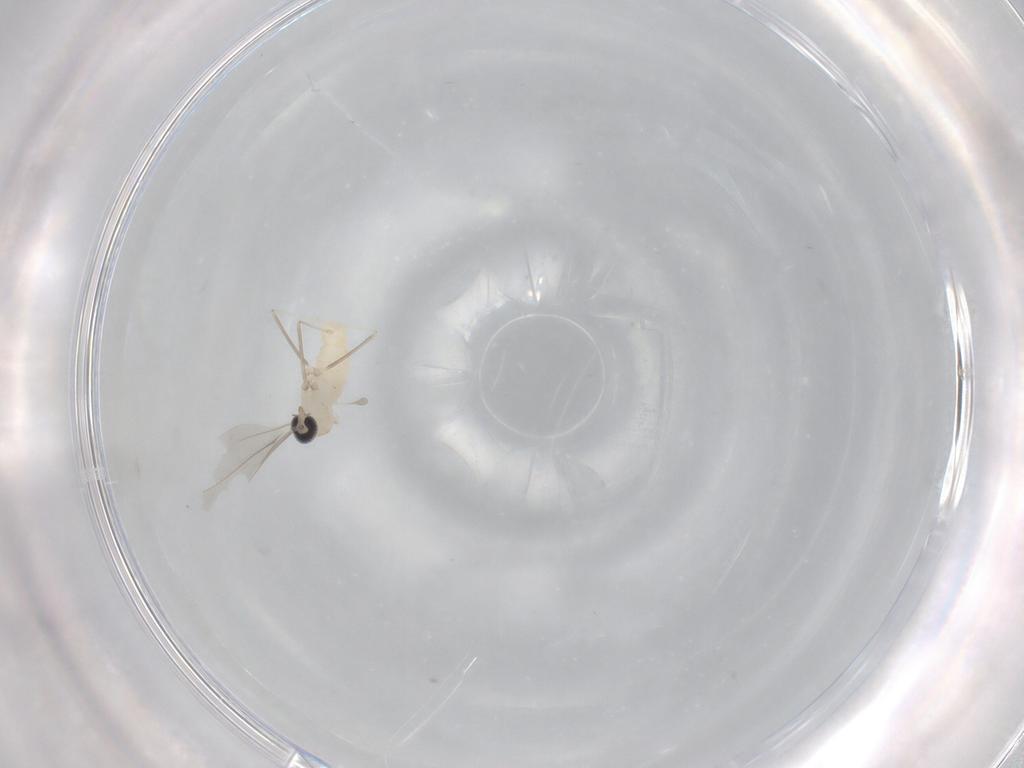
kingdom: Animalia
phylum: Arthropoda
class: Insecta
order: Diptera
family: Cecidomyiidae
